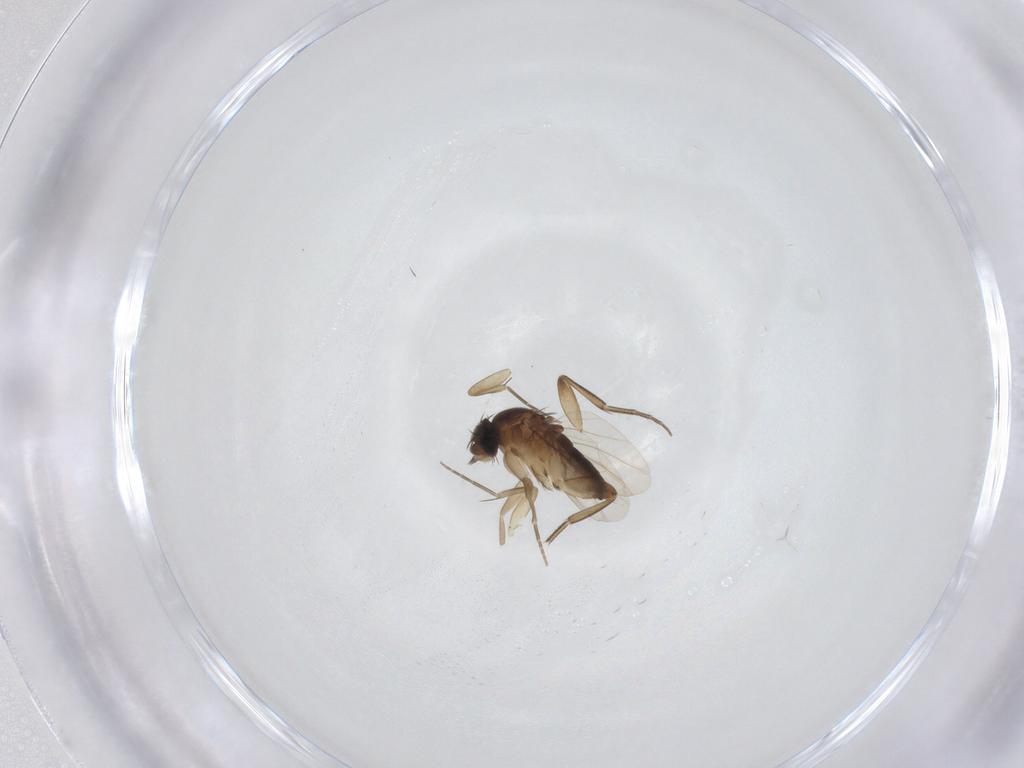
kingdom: Animalia
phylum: Arthropoda
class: Insecta
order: Diptera
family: Phoridae
